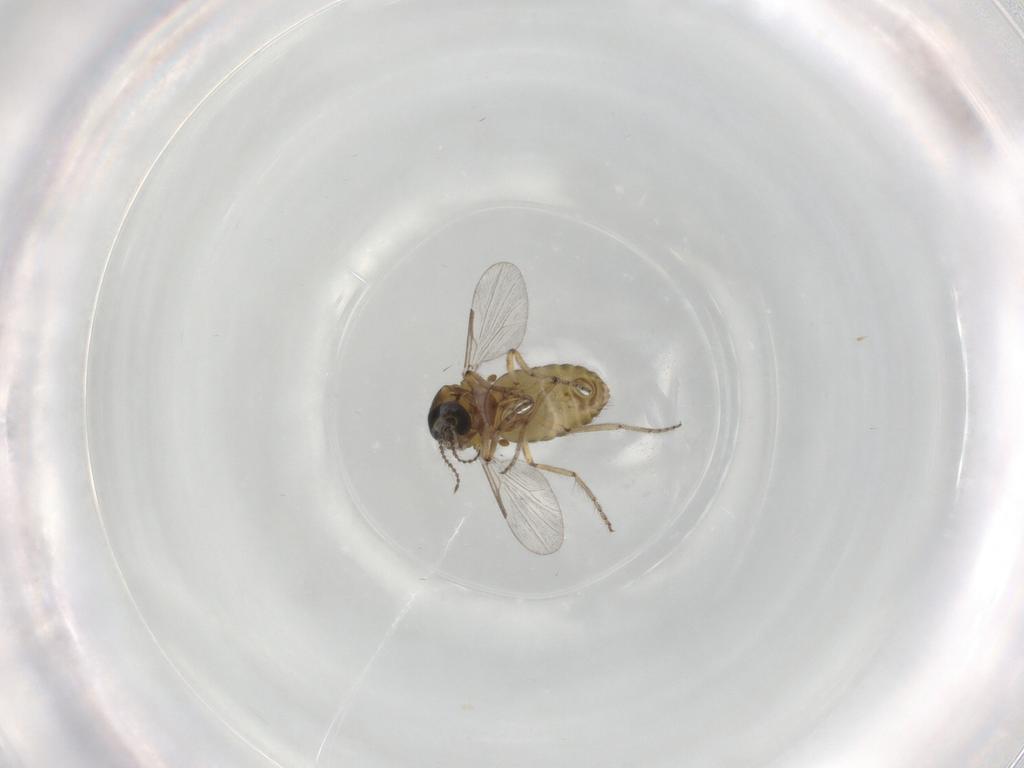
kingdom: Animalia
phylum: Arthropoda
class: Insecta
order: Diptera
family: Ceratopogonidae
